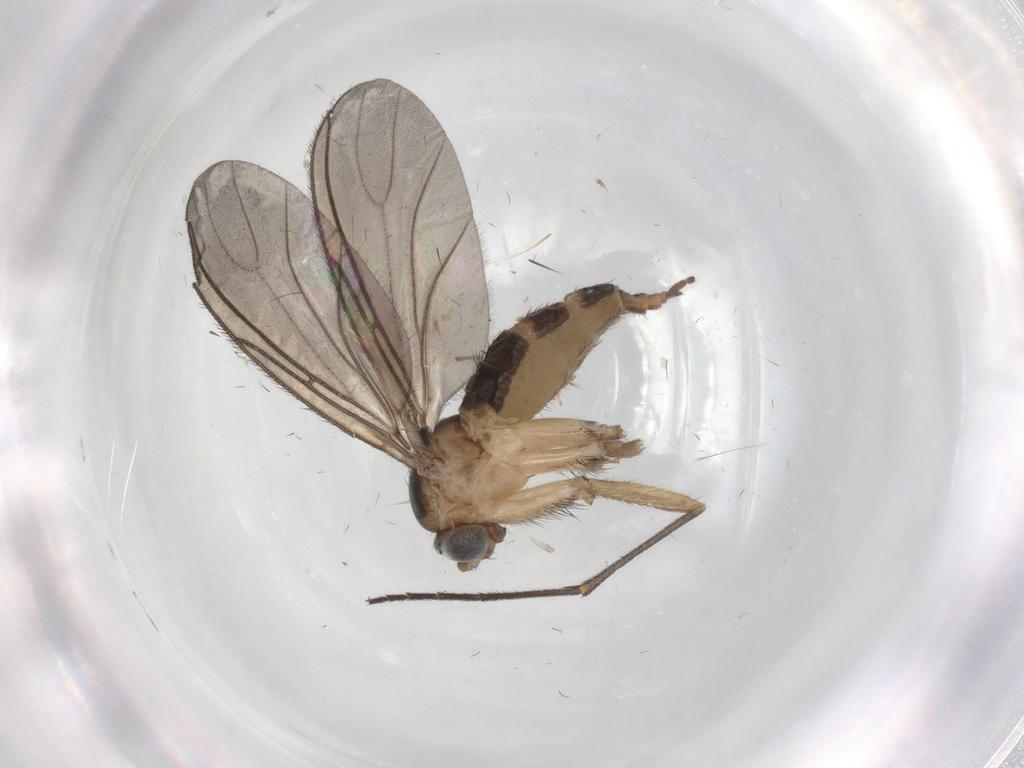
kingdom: Animalia
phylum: Arthropoda
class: Insecta
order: Diptera
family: Sciaridae
